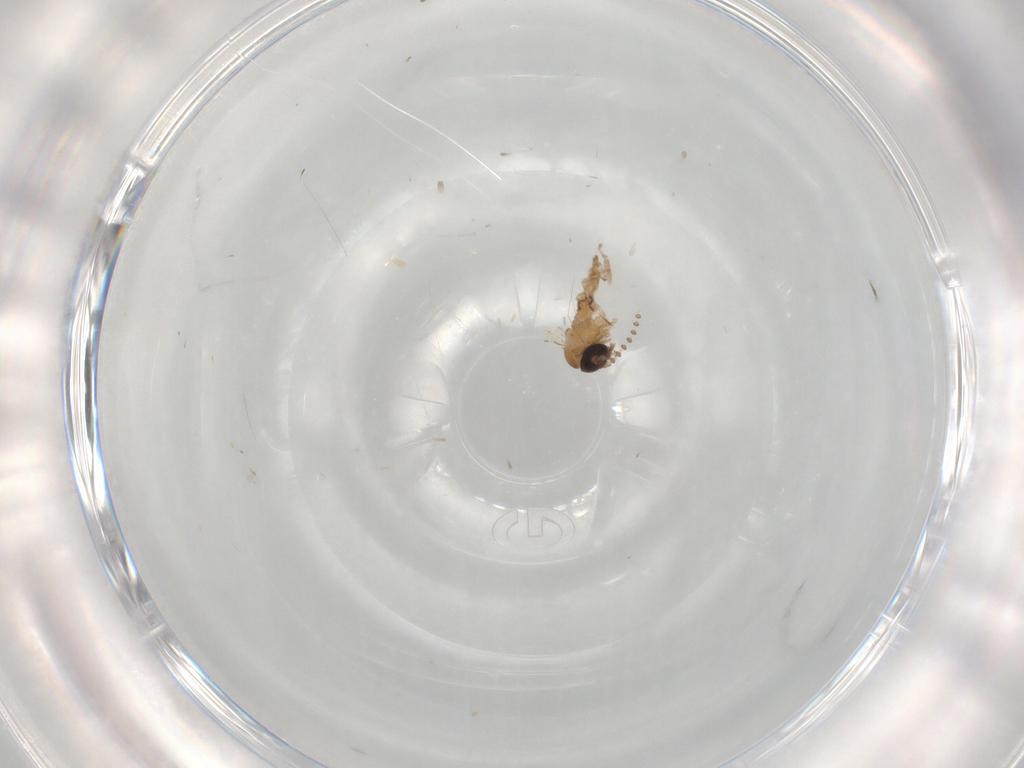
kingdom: Animalia
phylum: Arthropoda
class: Insecta
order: Diptera
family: Psychodidae
